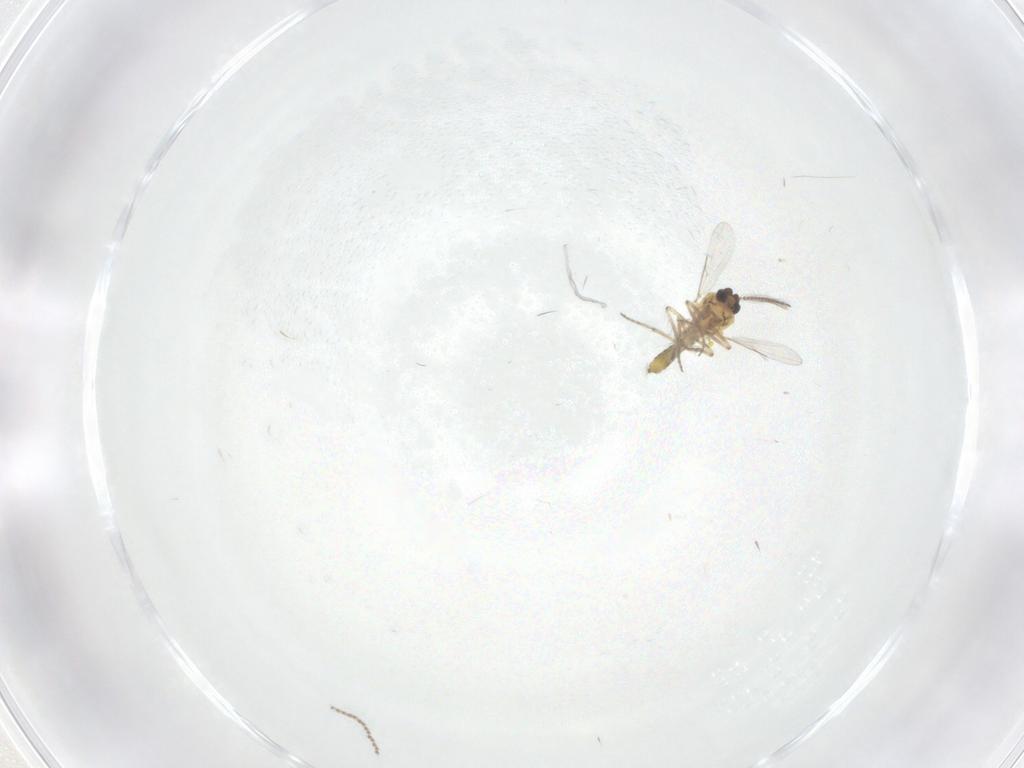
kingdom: Animalia
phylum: Arthropoda
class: Insecta
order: Diptera
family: Ceratopogonidae
